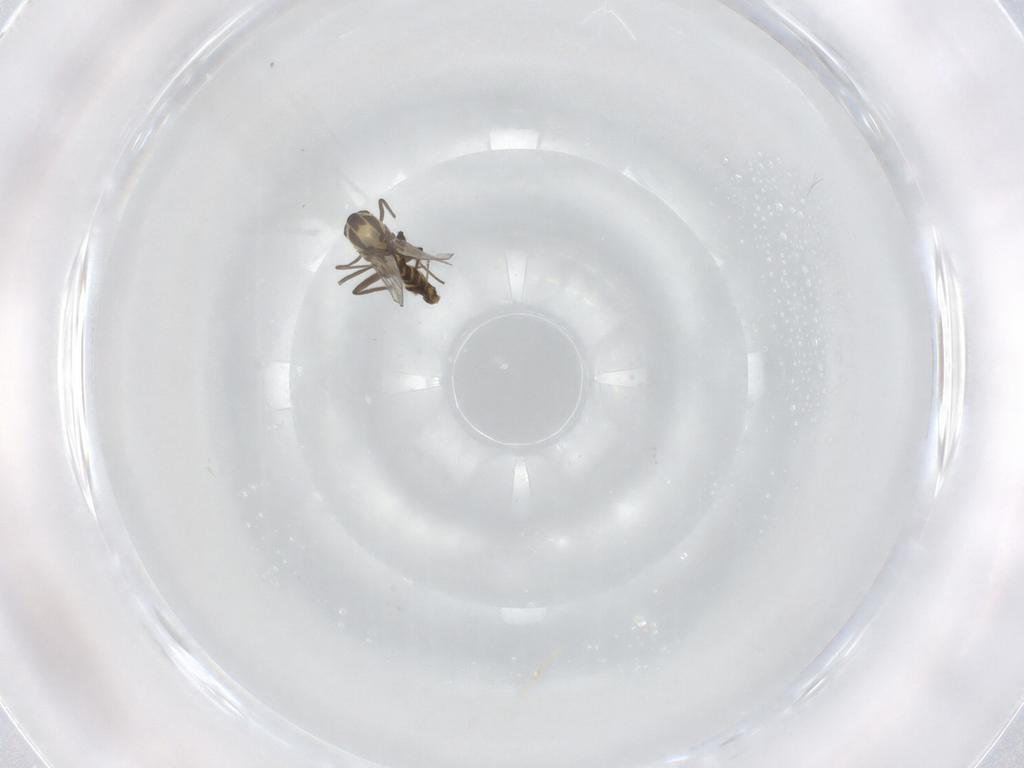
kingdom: Animalia
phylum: Arthropoda
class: Insecta
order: Diptera
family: Chironomidae
